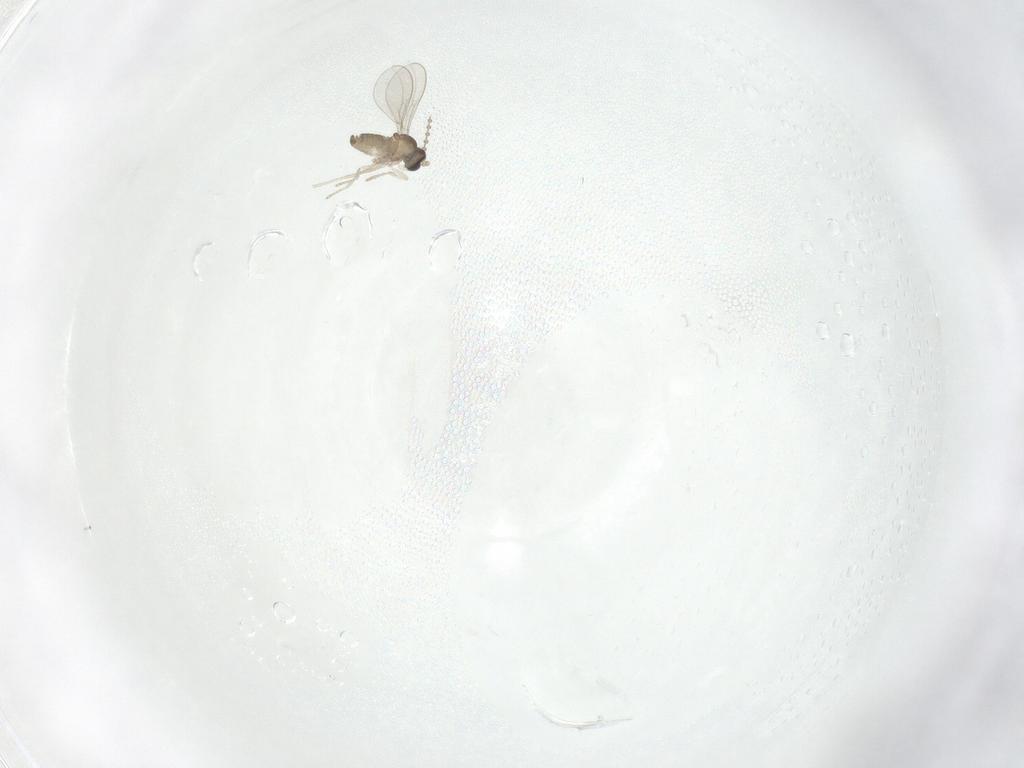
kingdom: Animalia
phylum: Arthropoda
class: Insecta
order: Diptera
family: Cecidomyiidae
